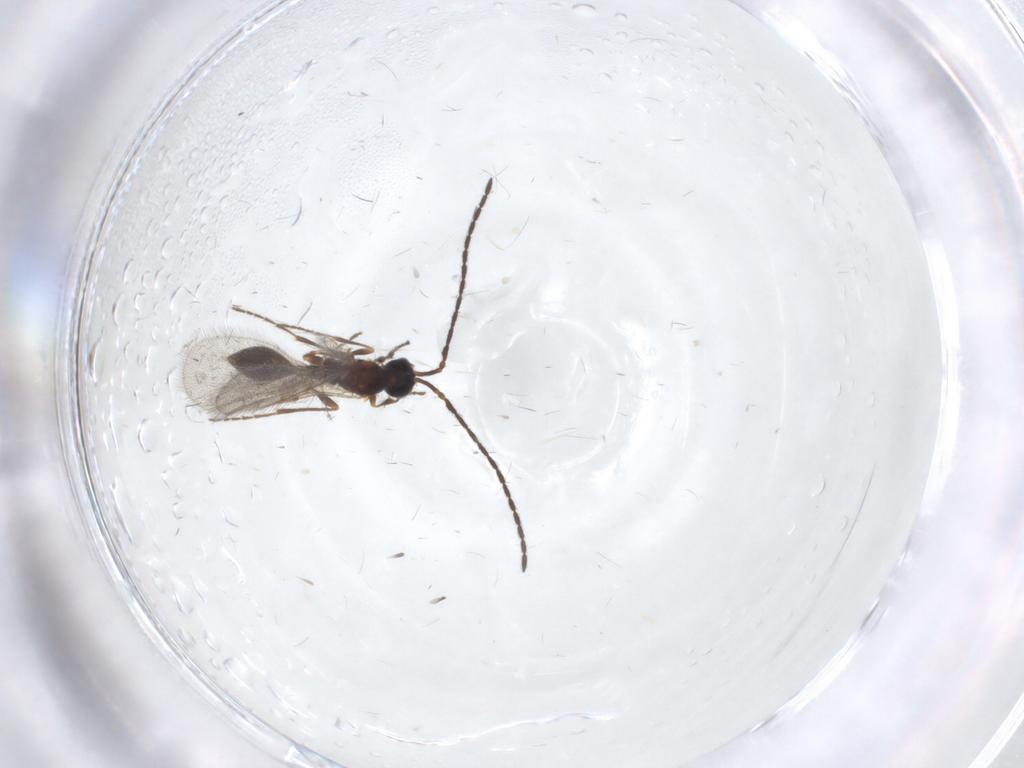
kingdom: Animalia
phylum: Arthropoda
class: Insecta
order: Hymenoptera
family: Diapriidae
